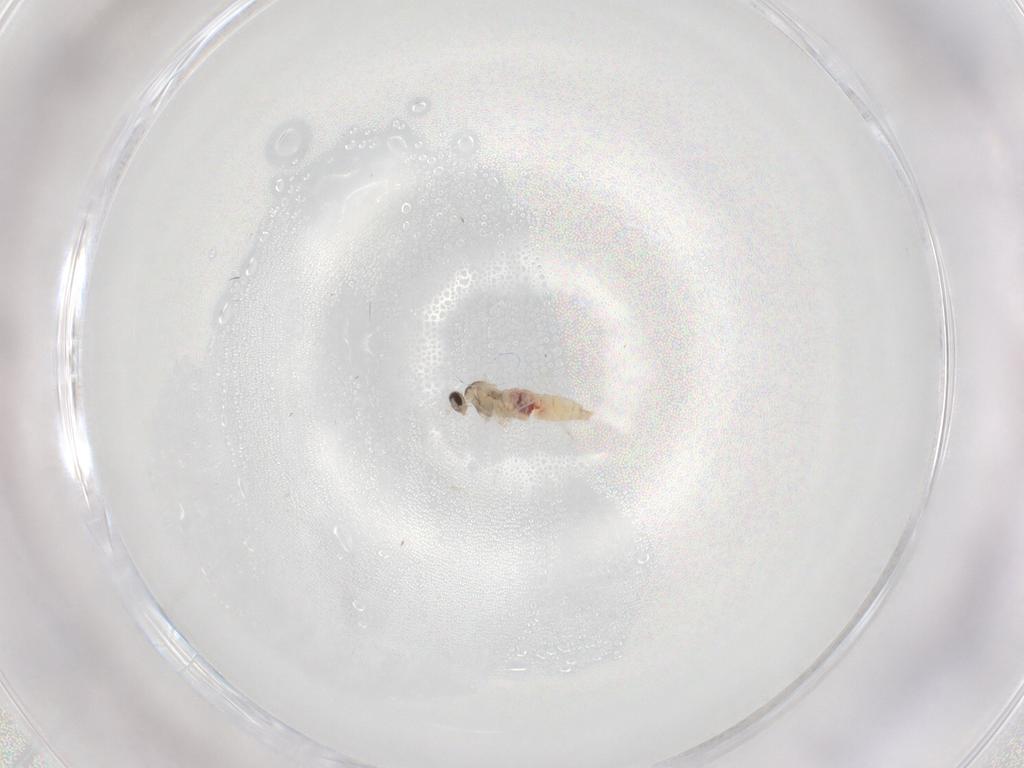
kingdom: Animalia
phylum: Arthropoda
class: Insecta
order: Diptera
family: Cecidomyiidae
